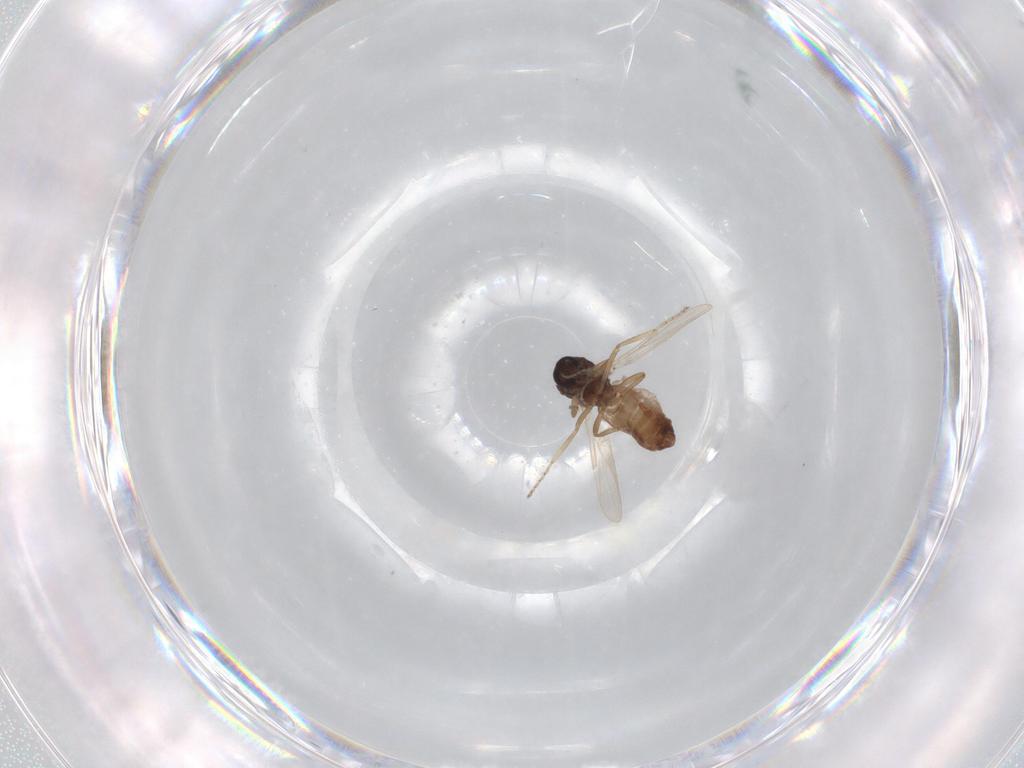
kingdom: Animalia
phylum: Arthropoda
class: Insecta
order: Diptera
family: Ceratopogonidae
